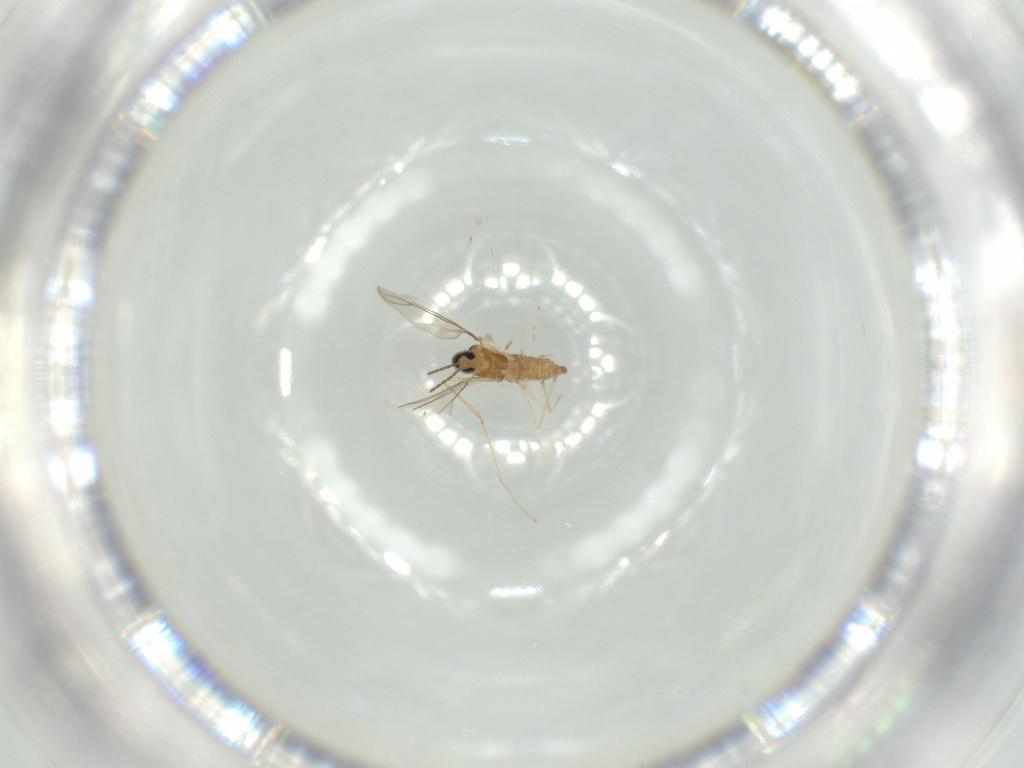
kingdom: Animalia
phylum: Arthropoda
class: Insecta
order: Diptera
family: Cecidomyiidae
